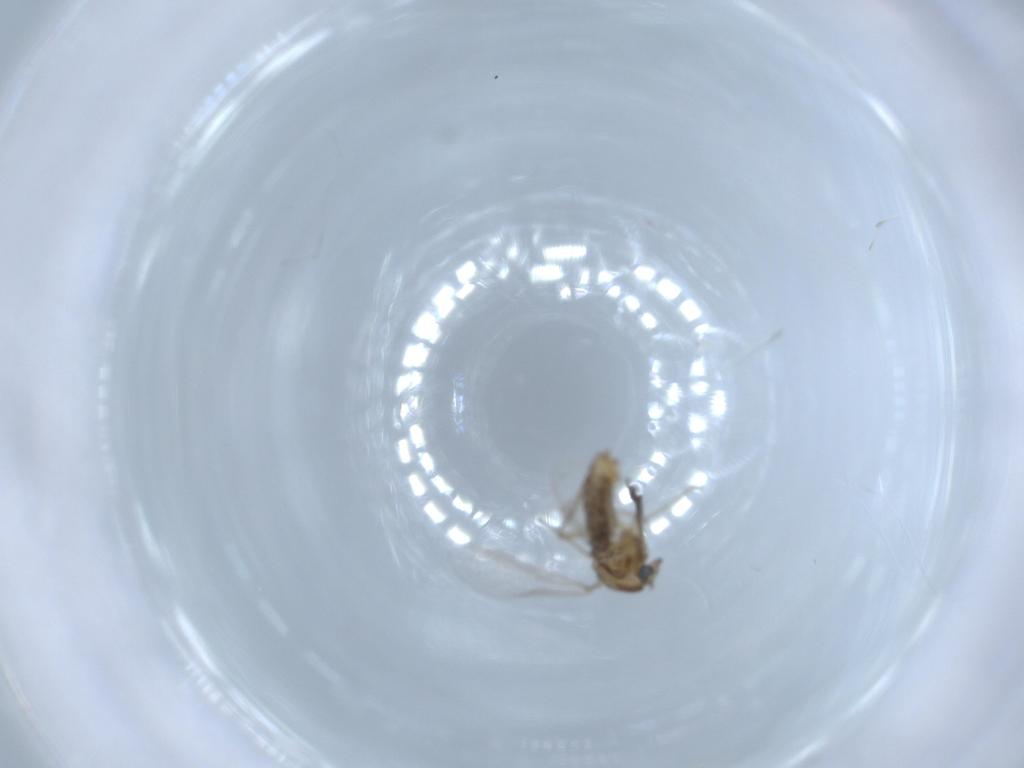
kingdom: Animalia
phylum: Arthropoda
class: Insecta
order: Diptera
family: Chironomidae
